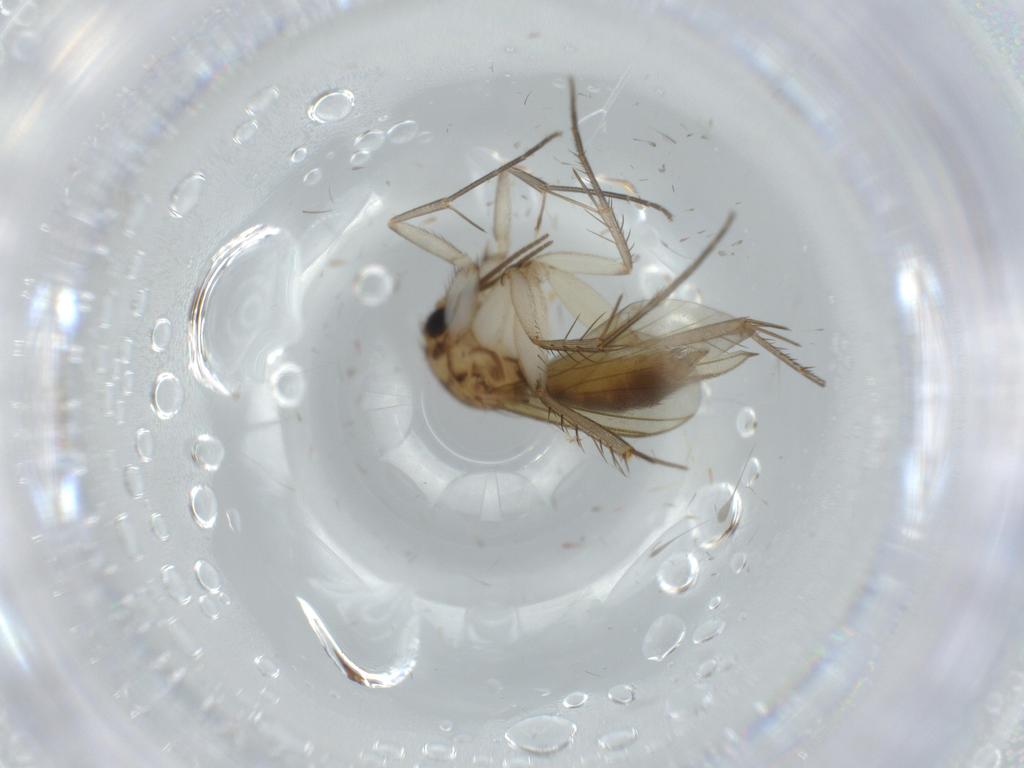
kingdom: Animalia
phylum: Arthropoda
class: Insecta
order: Diptera
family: Mycetophilidae
